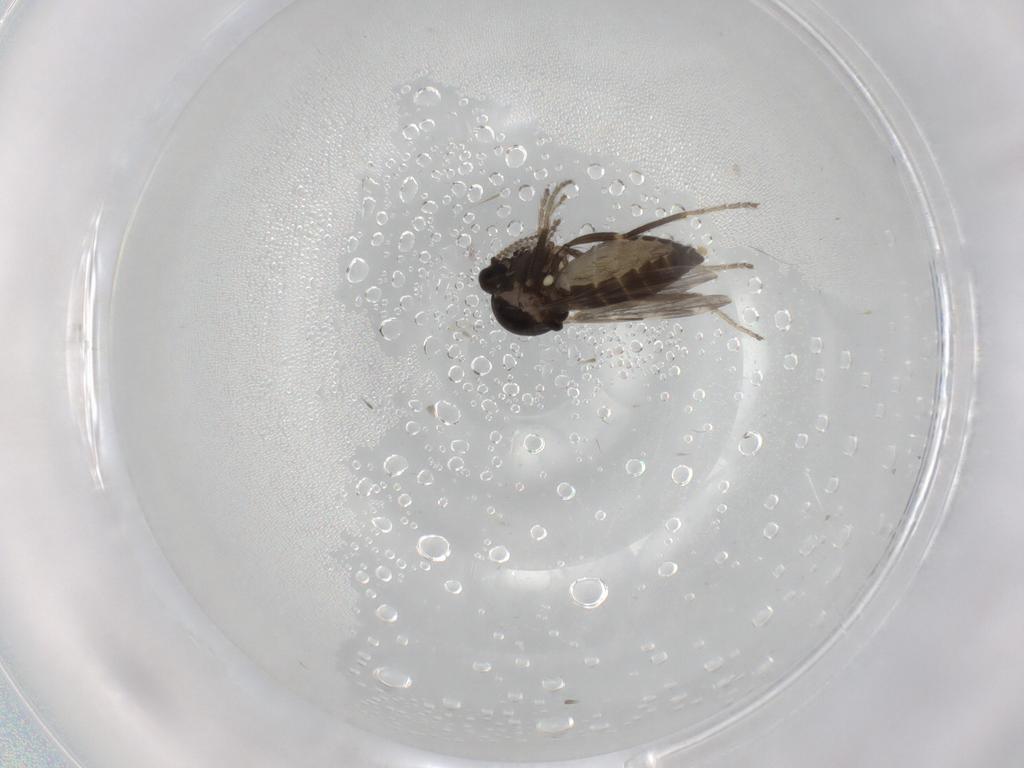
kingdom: Animalia
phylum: Arthropoda
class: Insecta
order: Diptera
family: Ceratopogonidae
